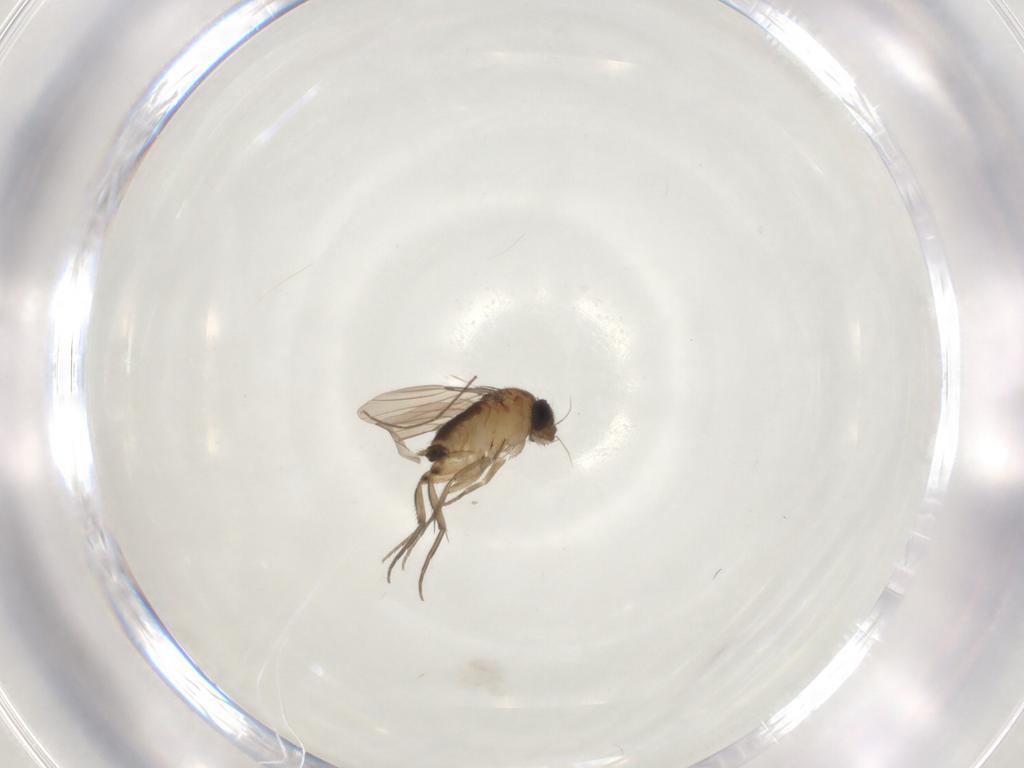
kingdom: Animalia
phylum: Arthropoda
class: Insecta
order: Diptera
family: Phoridae
